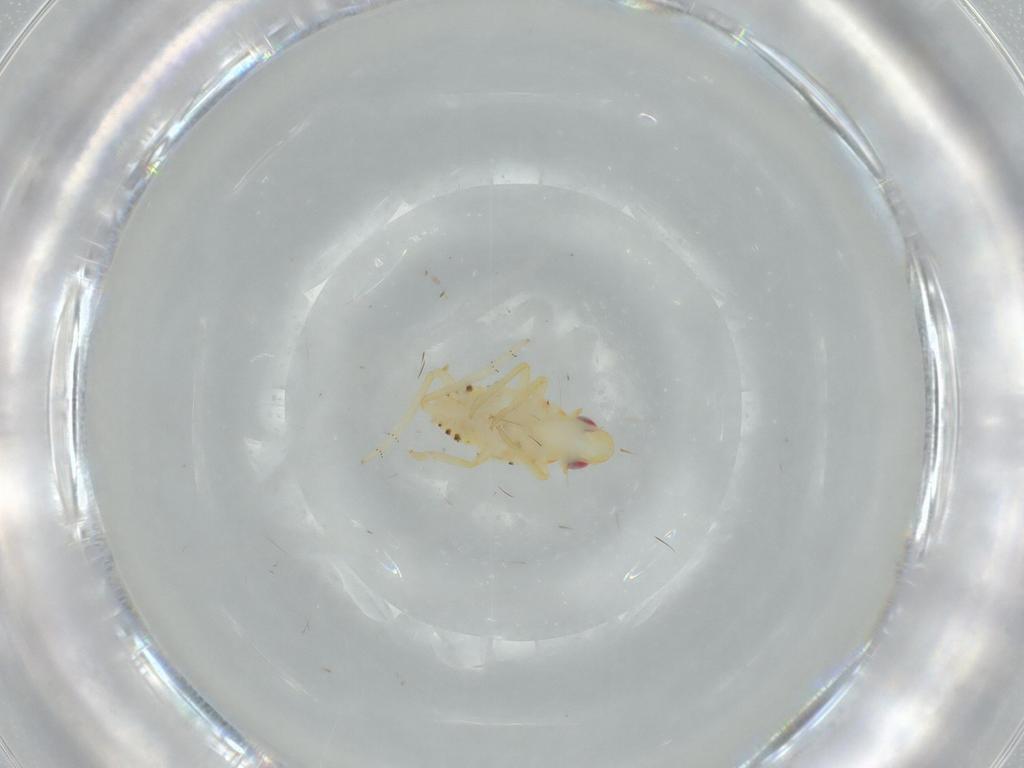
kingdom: Animalia
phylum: Arthropoda
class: Insecta
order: Hemiptera
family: Tropiduchidae
